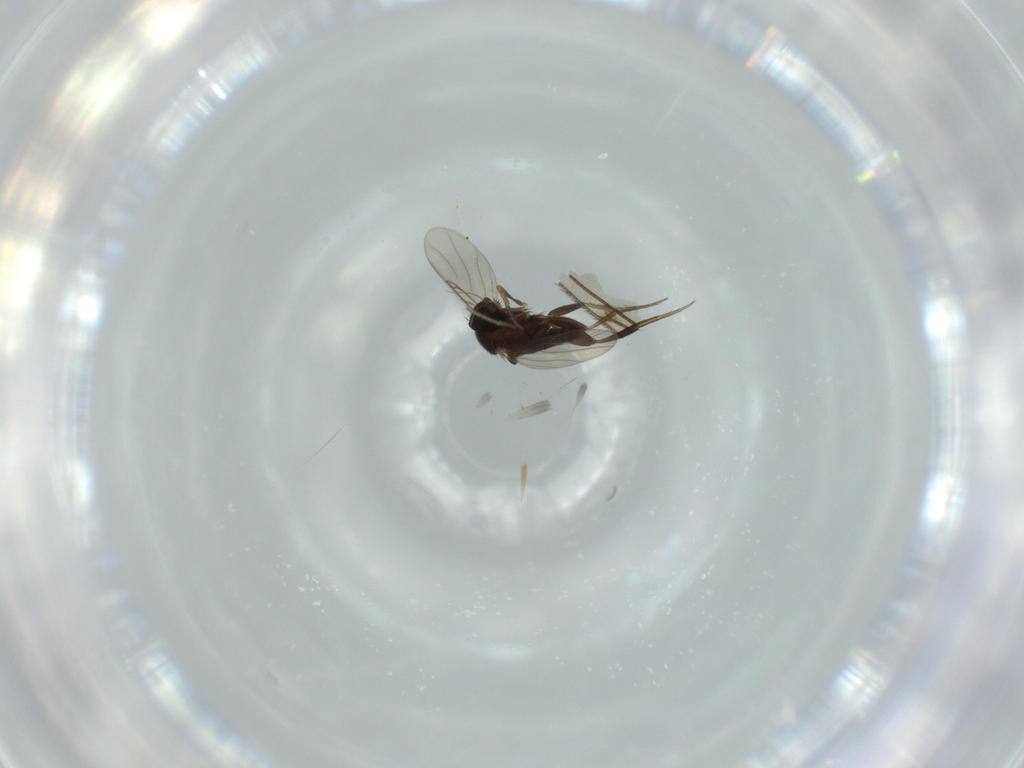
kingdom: Animalia
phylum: Arthropoda
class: Insecta
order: Diptera
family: Phoridae
